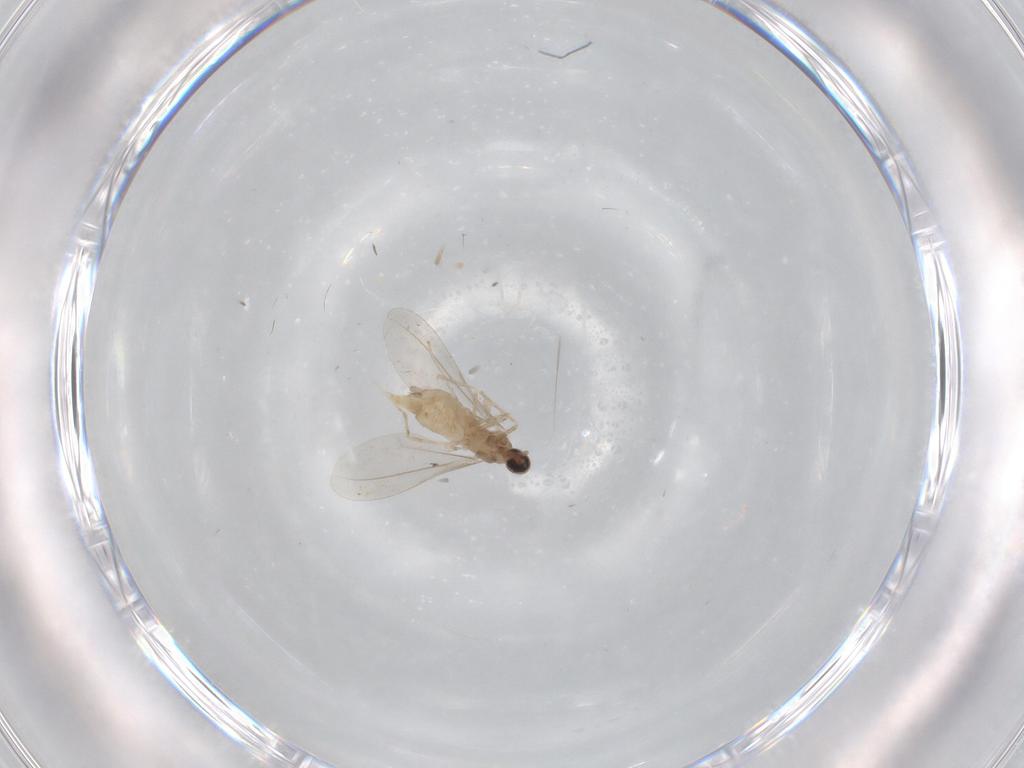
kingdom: Animalia
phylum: Arthropoda
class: Insecta
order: Diptera
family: Cecidomyiidae
